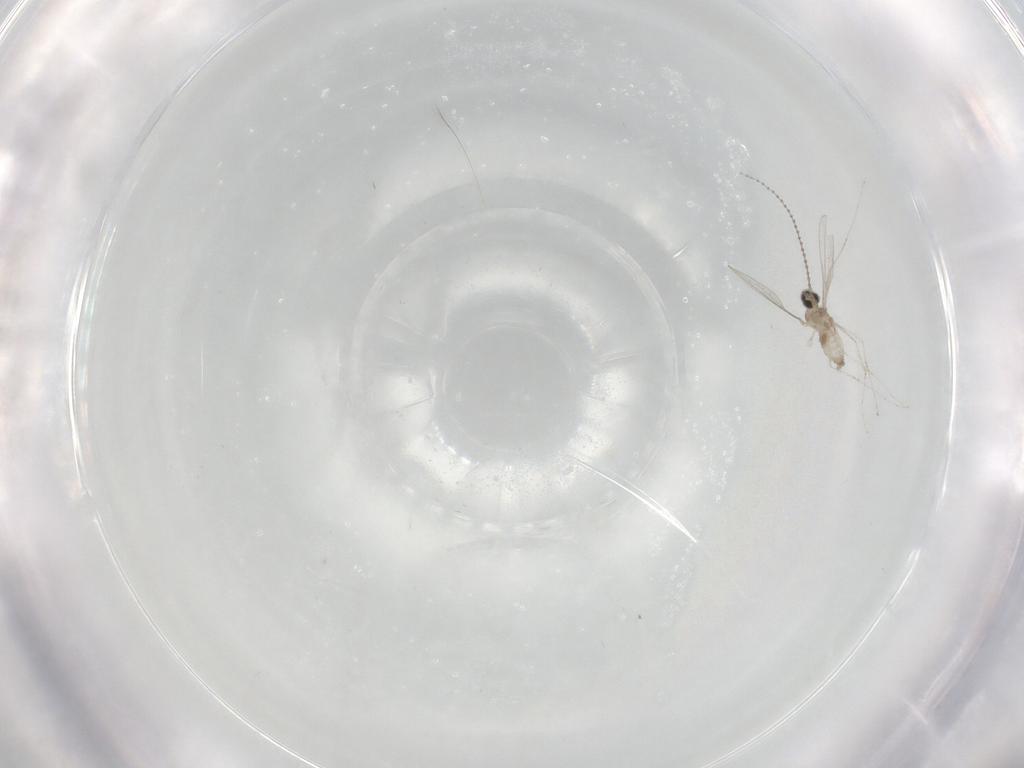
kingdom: Animalia
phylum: Arthropoda
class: Insecta
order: Diptera
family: Cecidomyiidae
